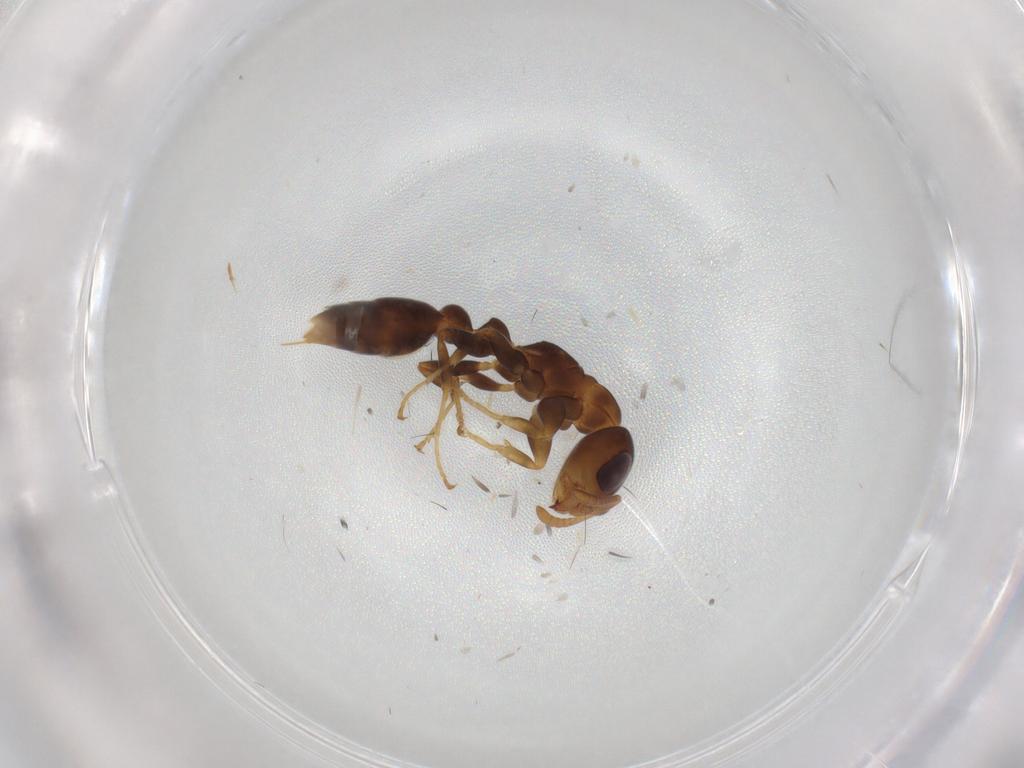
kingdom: Animalia
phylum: Arthropoda
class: Insecta
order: Hymenoptera
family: Formicidae
